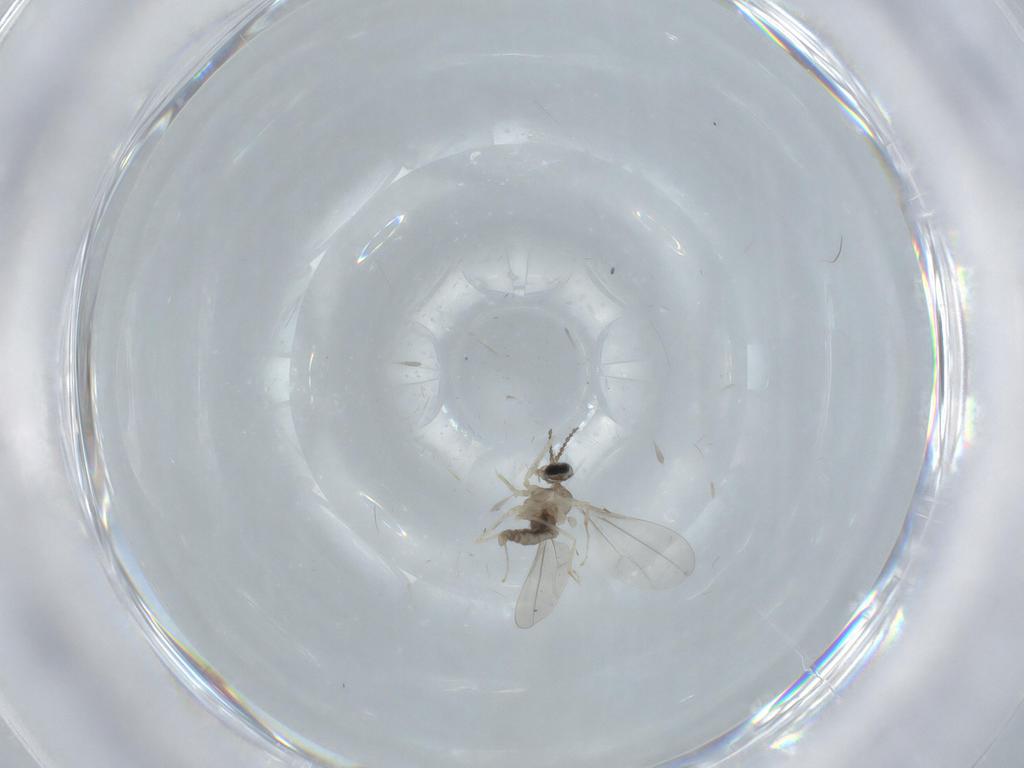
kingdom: Animalia
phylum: Arthropoda
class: Insecta
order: Diptera
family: Cecidomyiidae
